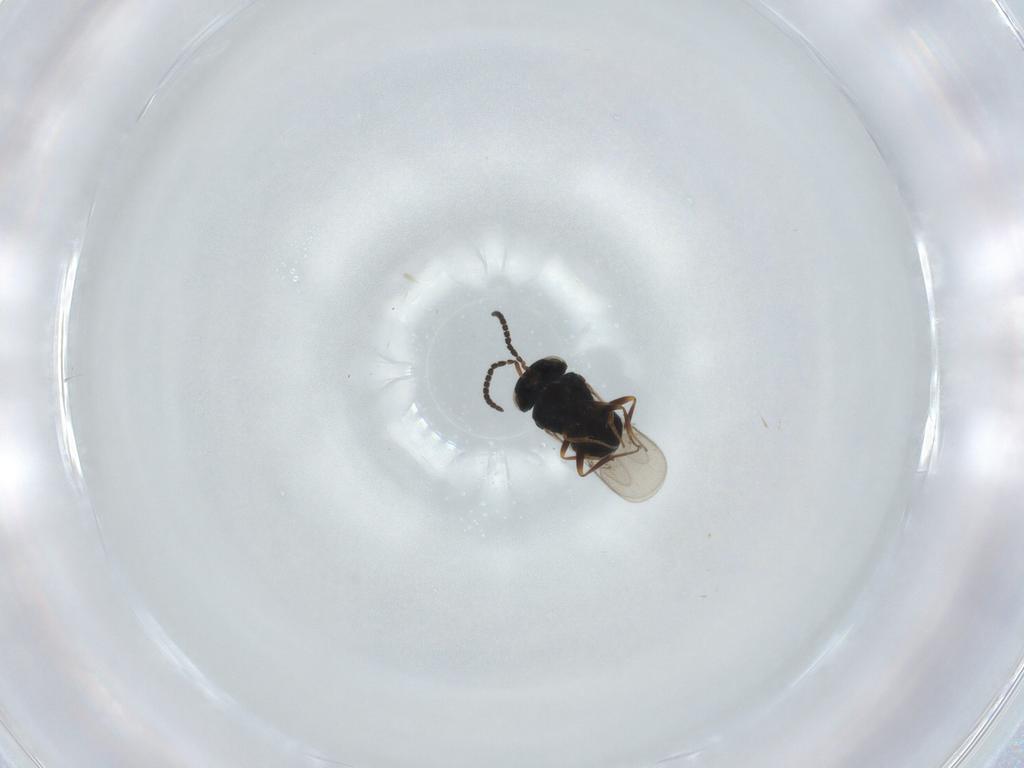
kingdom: Animalia
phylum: Arthropoda
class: Insecta
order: Hymenoptera
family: Scelionidae
